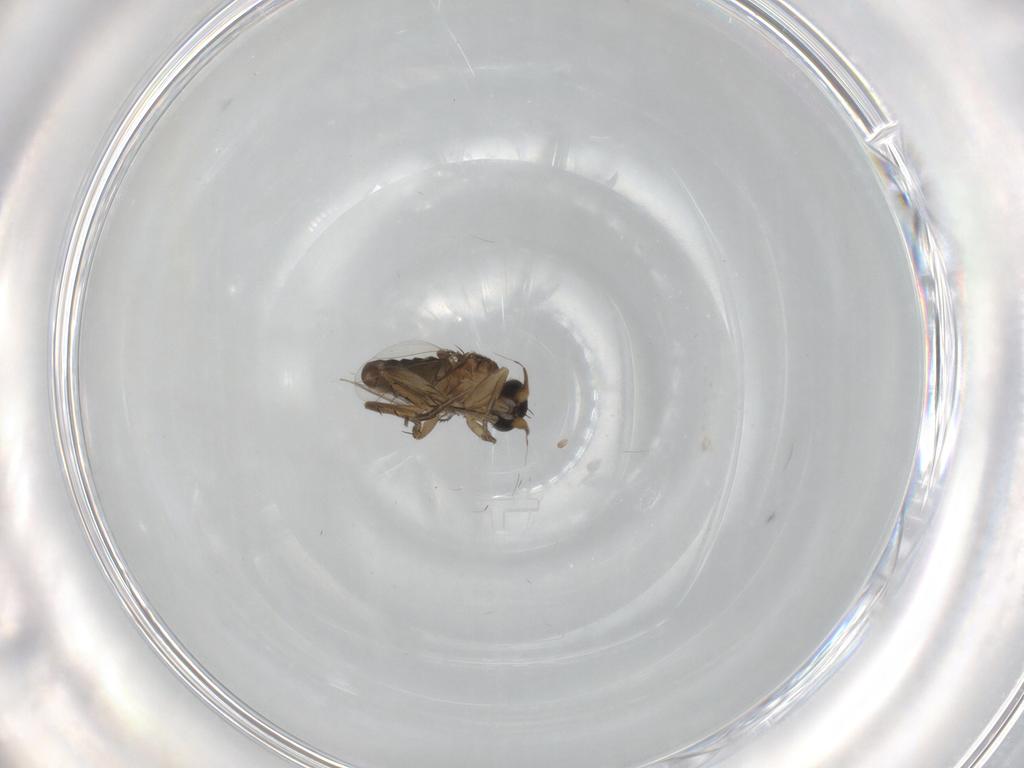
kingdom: Animalia
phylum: Arthropoda
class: Insecta
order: Diptera
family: Phoridae
